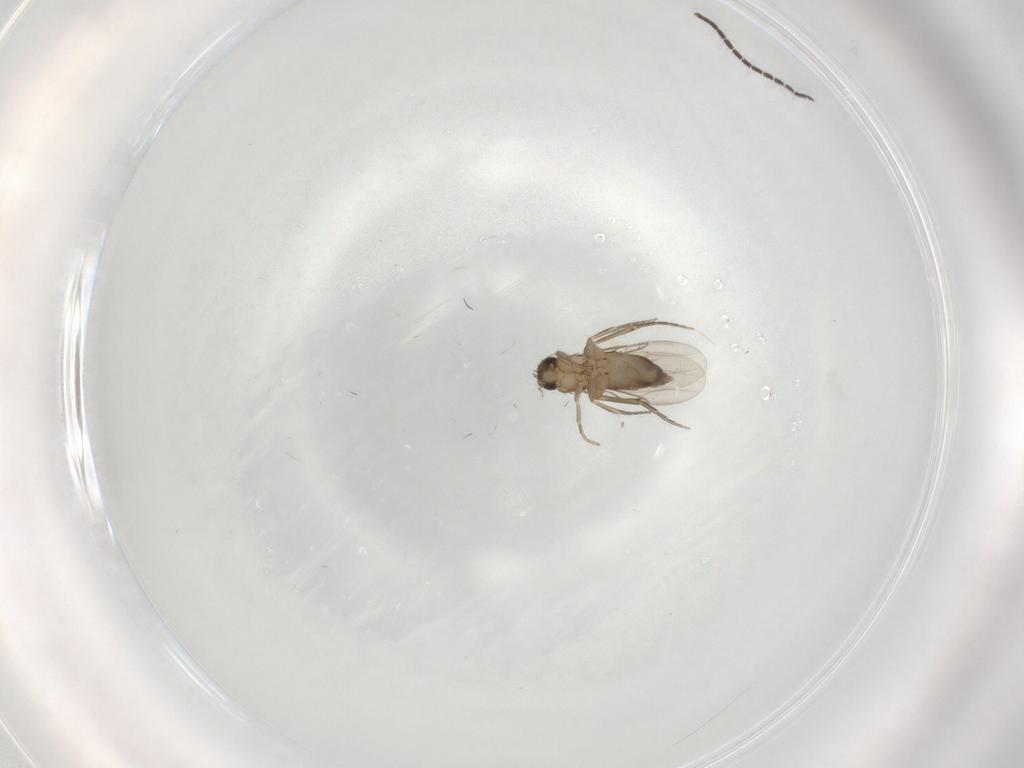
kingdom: Animalia
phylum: Arthropoda
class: Insecta
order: Diptera
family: Phoridae
